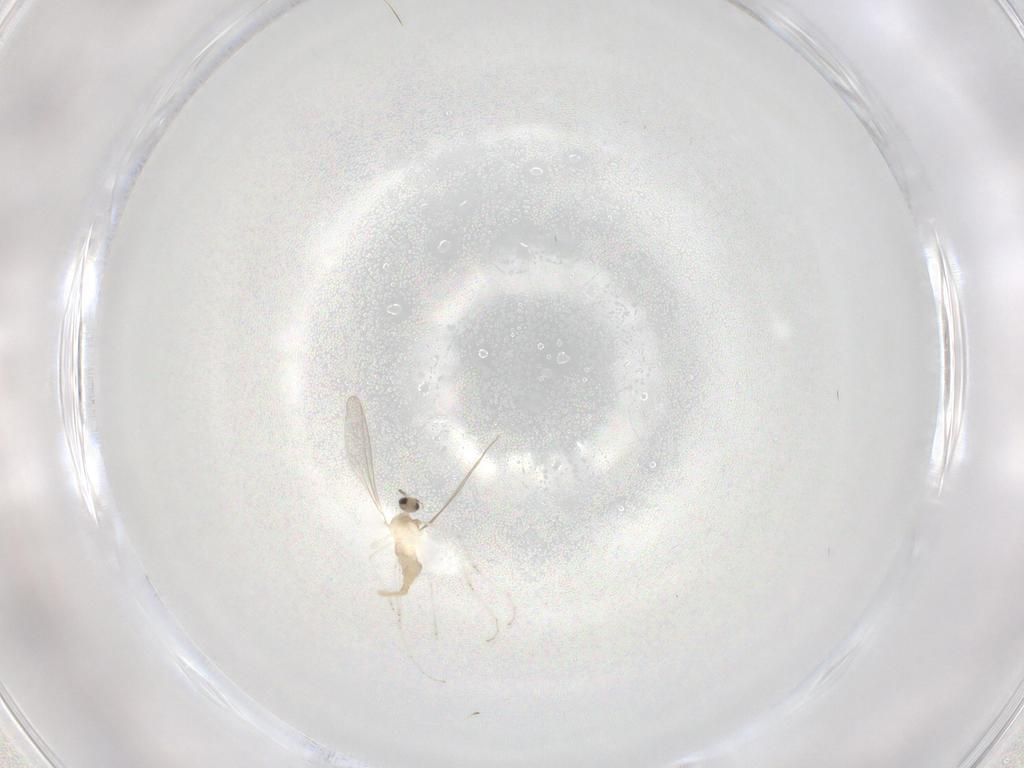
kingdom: Animalia
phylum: Arthropoda
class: Insecta
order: Diptera
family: Cecidomyiidae
